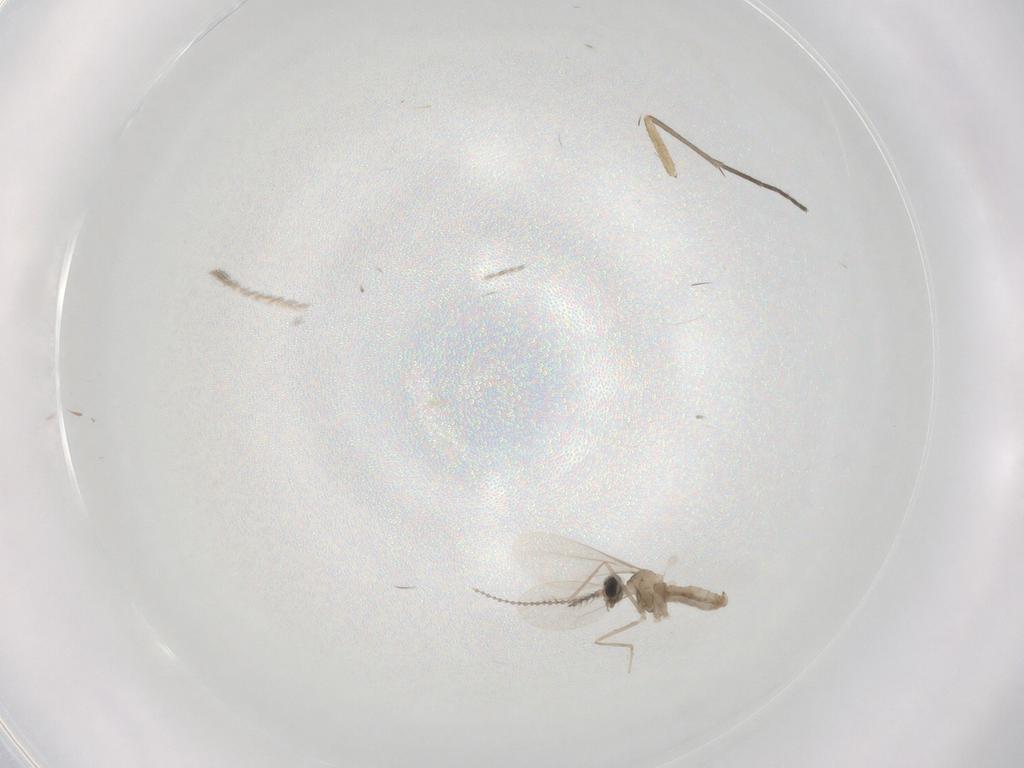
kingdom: Animalia
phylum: Arthropoda
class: Insecta
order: Diptera
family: Cecidomyiidae
